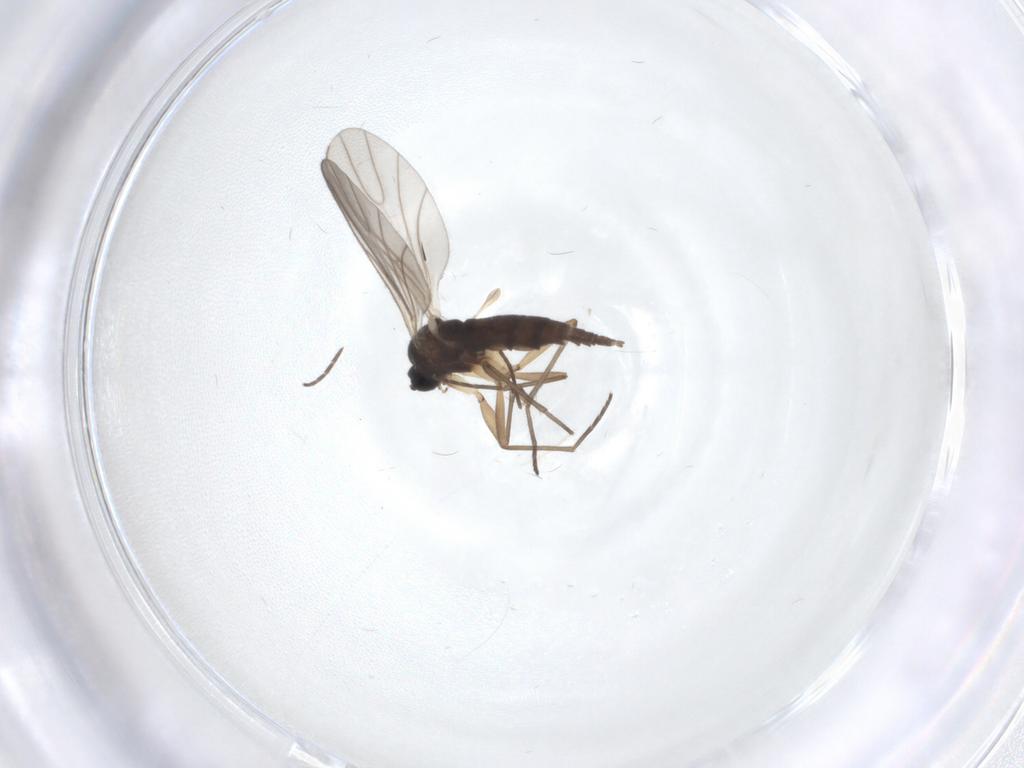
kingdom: Animalia
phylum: Arthropoda
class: Insecta
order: Diptera
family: Sciaridae
